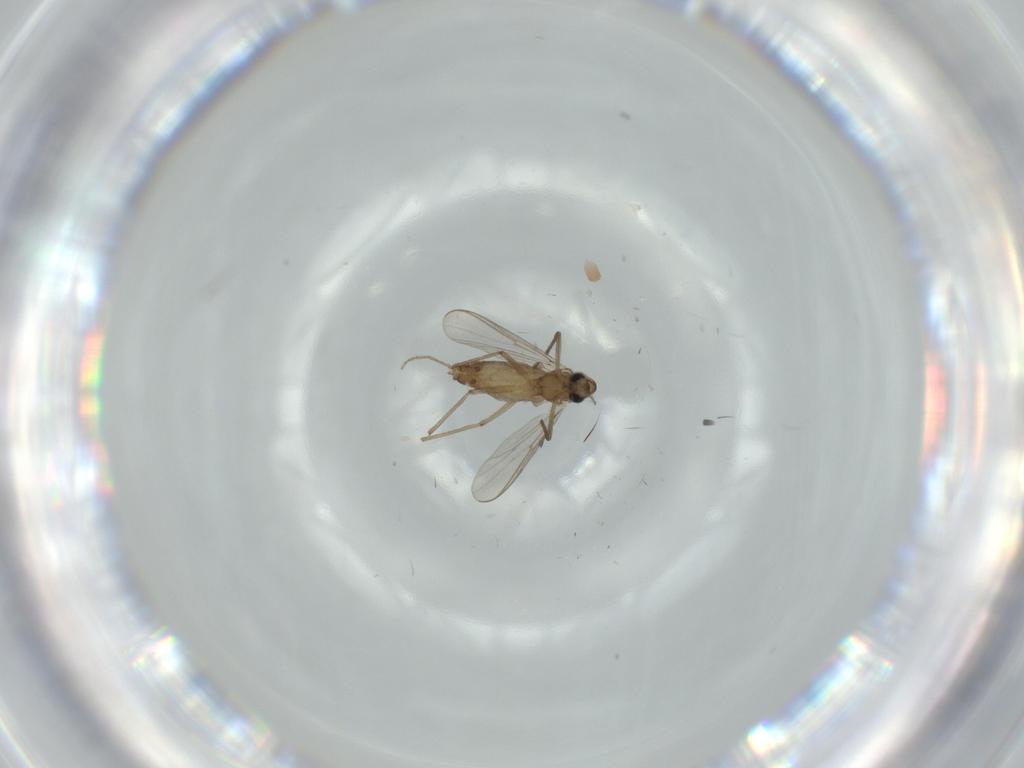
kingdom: Animalia
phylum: Arthropoda
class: Insecta
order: Diptera
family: Chironomidae
